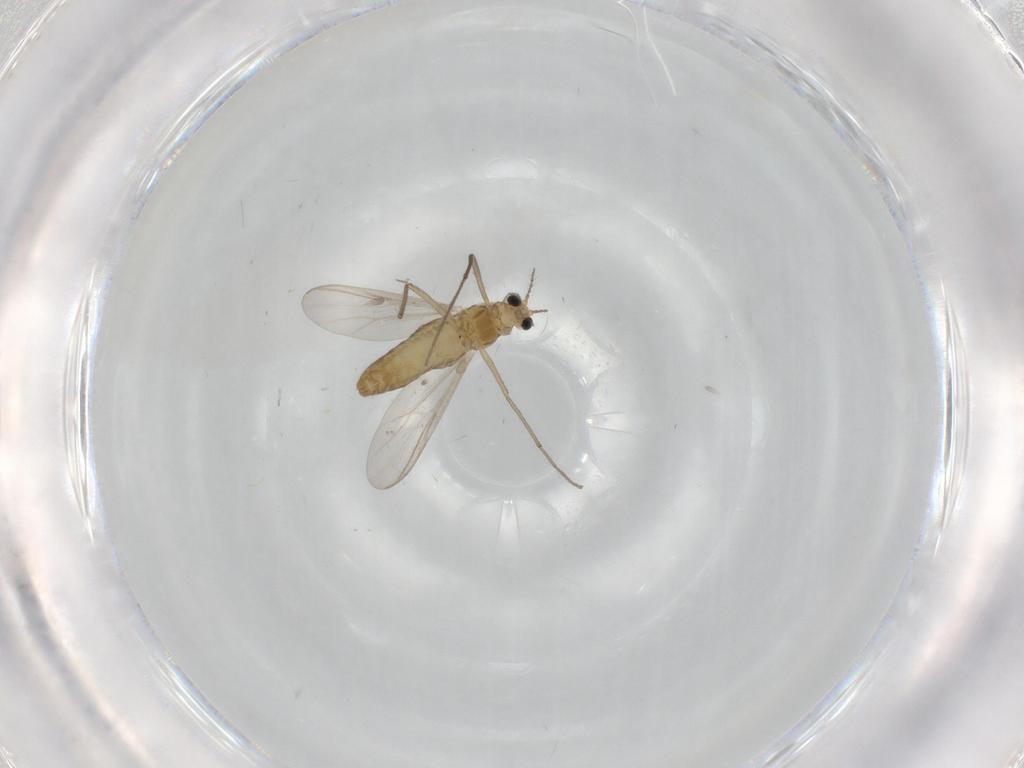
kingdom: Animalia
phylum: Arthropoda
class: Insecta
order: Diptera
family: Chironomidae
